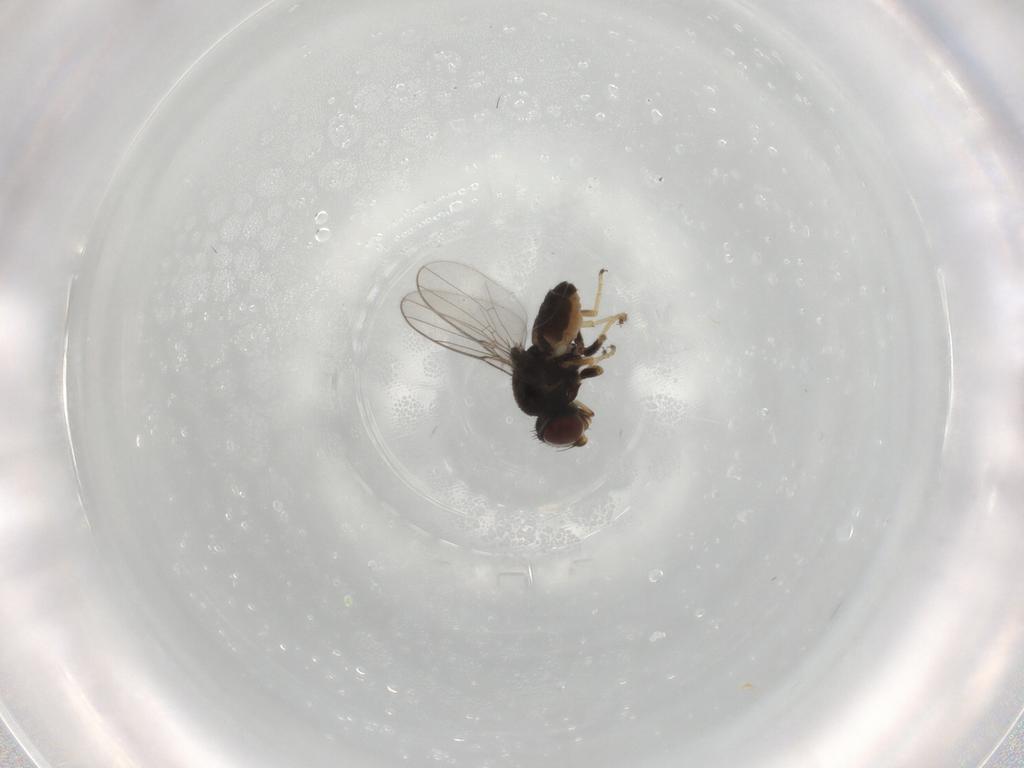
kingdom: Animalia
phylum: Arthropoda
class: Insecta
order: Diptera
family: Chloropidae
